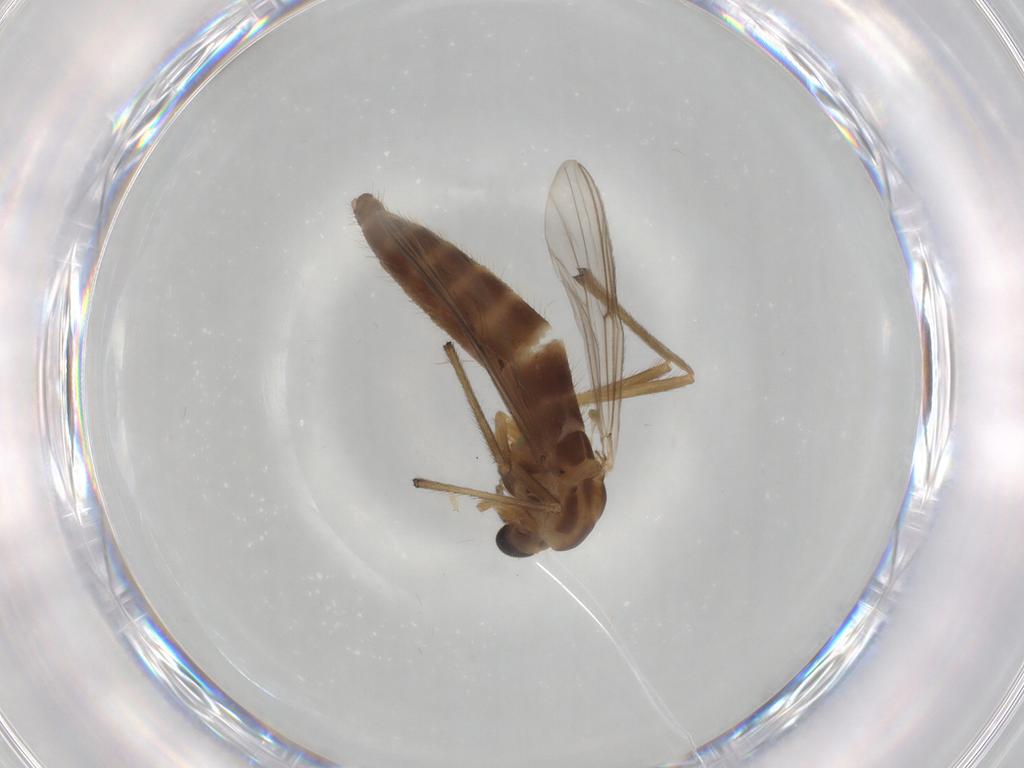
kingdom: Animalia
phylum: Arthropoda
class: Insecta
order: Diptera
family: Chironomidae
